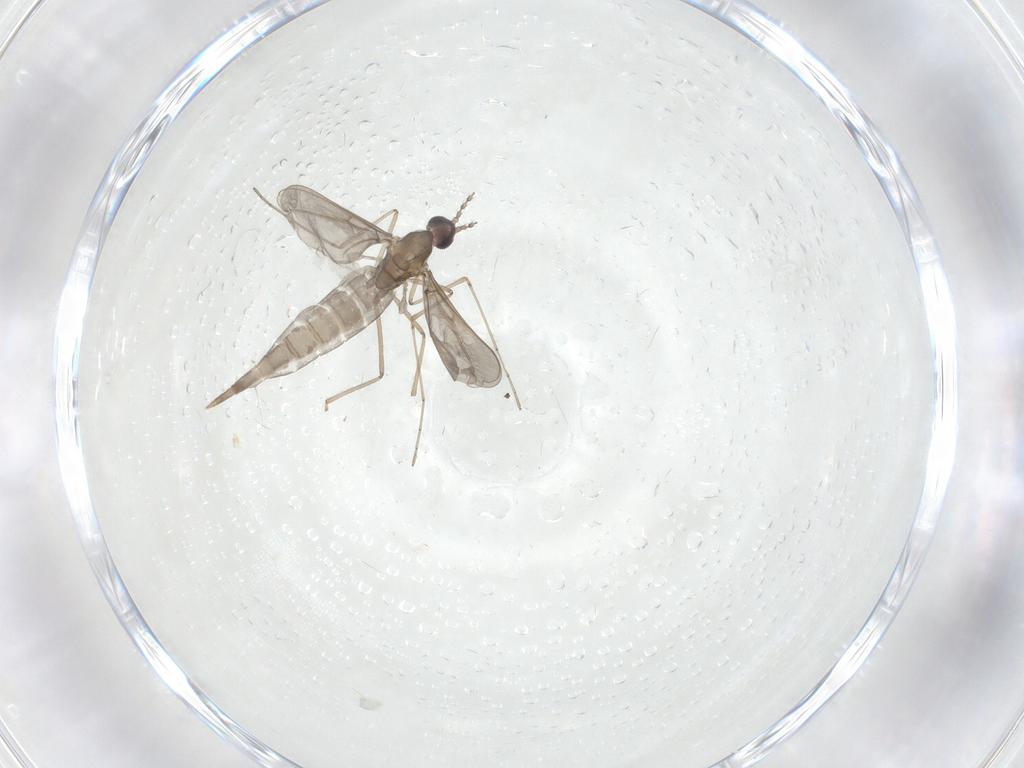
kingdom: Animalia
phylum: Arthropoda
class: Insecta
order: Diptera
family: Cecidomyiidae
